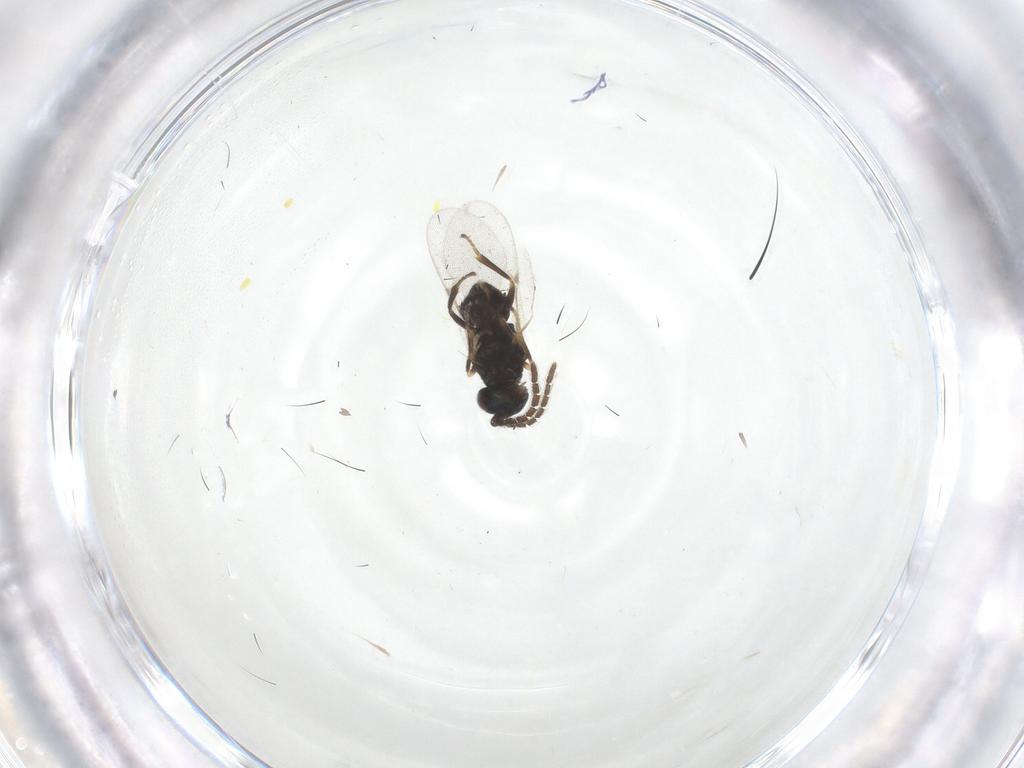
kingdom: Animalia
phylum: Arthropoda
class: Insecta
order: Hymenoptera
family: Encyrtidae
